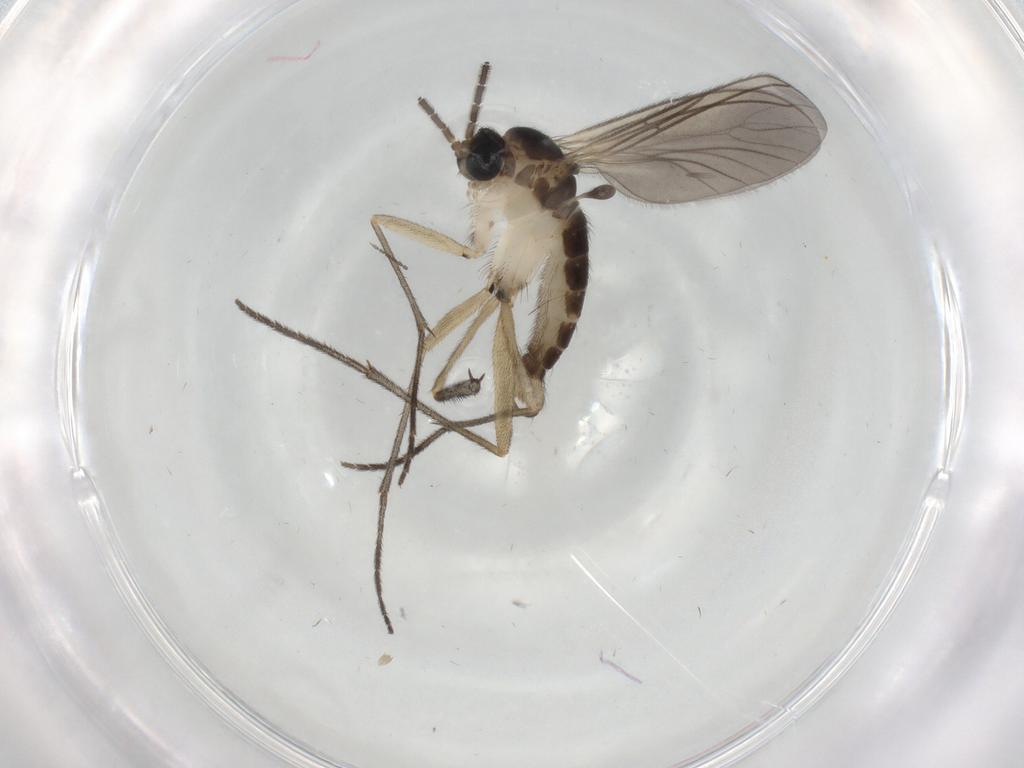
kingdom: Animalia
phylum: Arthropoda
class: Insecta
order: Diptera
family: Sciaridae
